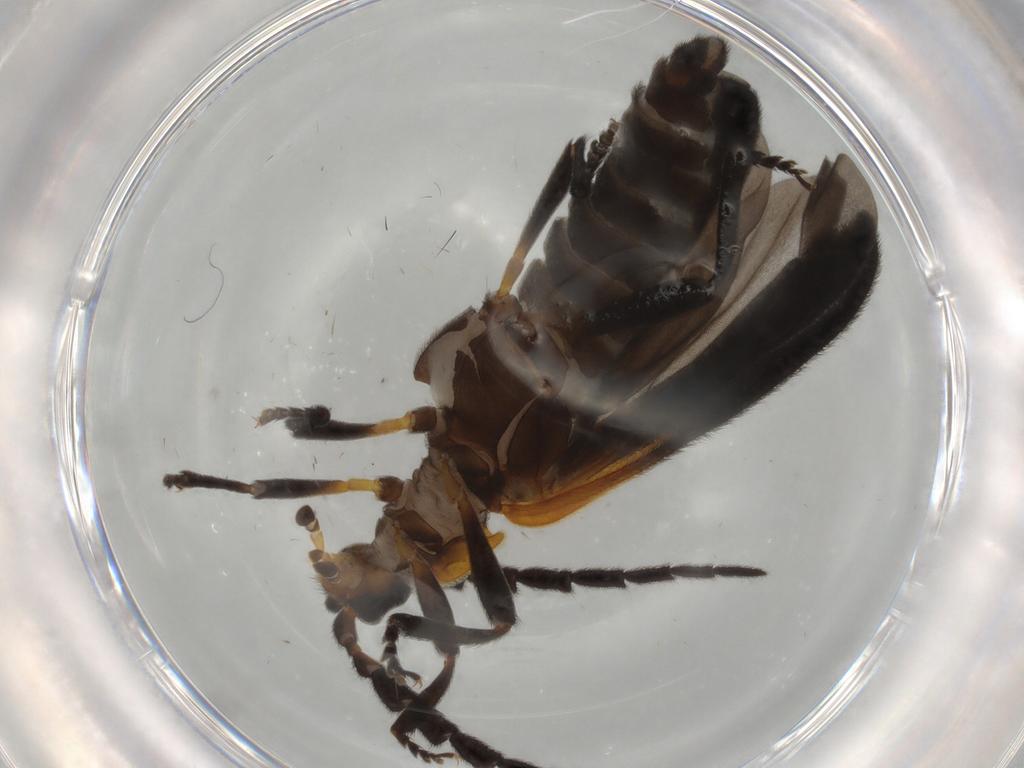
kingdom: Animalia
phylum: Arthropoda
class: Insecta
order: Coleoptera
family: Lycidae
